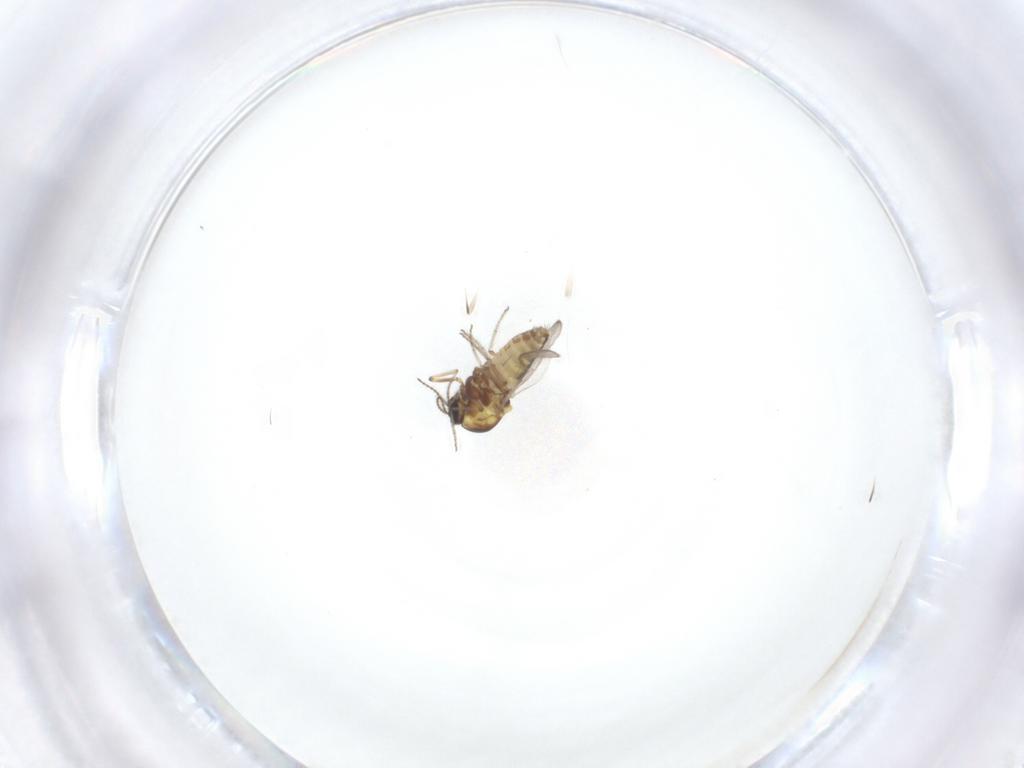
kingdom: Animalia
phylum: Arthropoda
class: Insecta
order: Diptera
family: Ceratopogonidae
